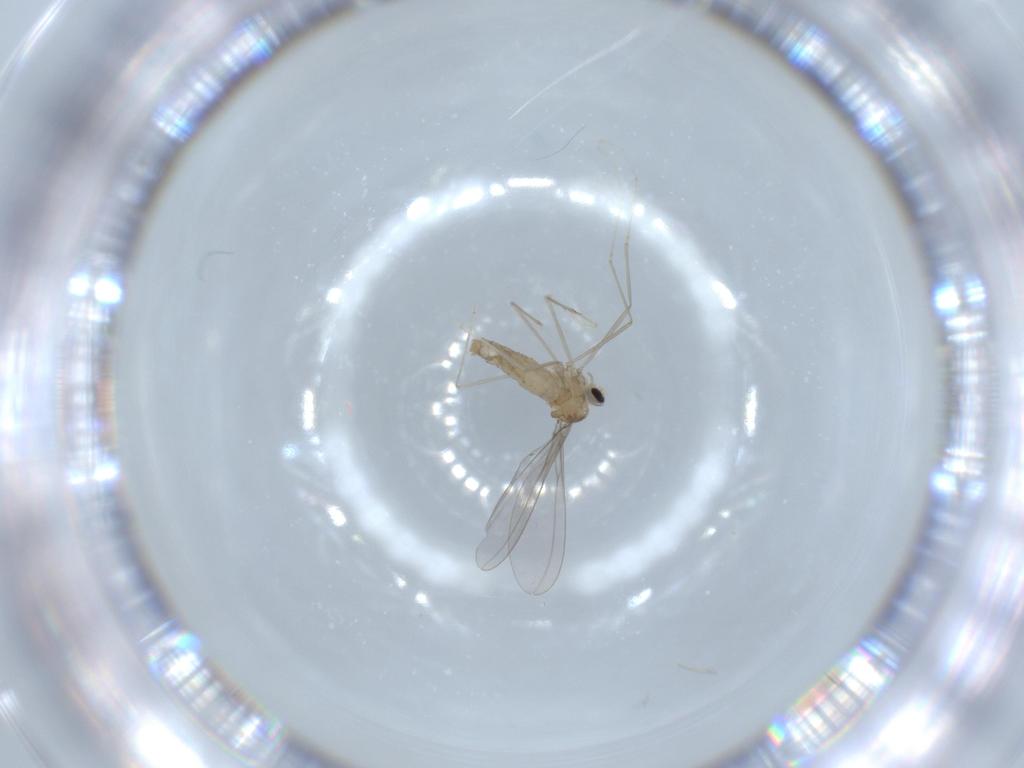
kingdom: Animalia
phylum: Arthropoda
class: Insecta
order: Diptera
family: Cecidomyiidae
